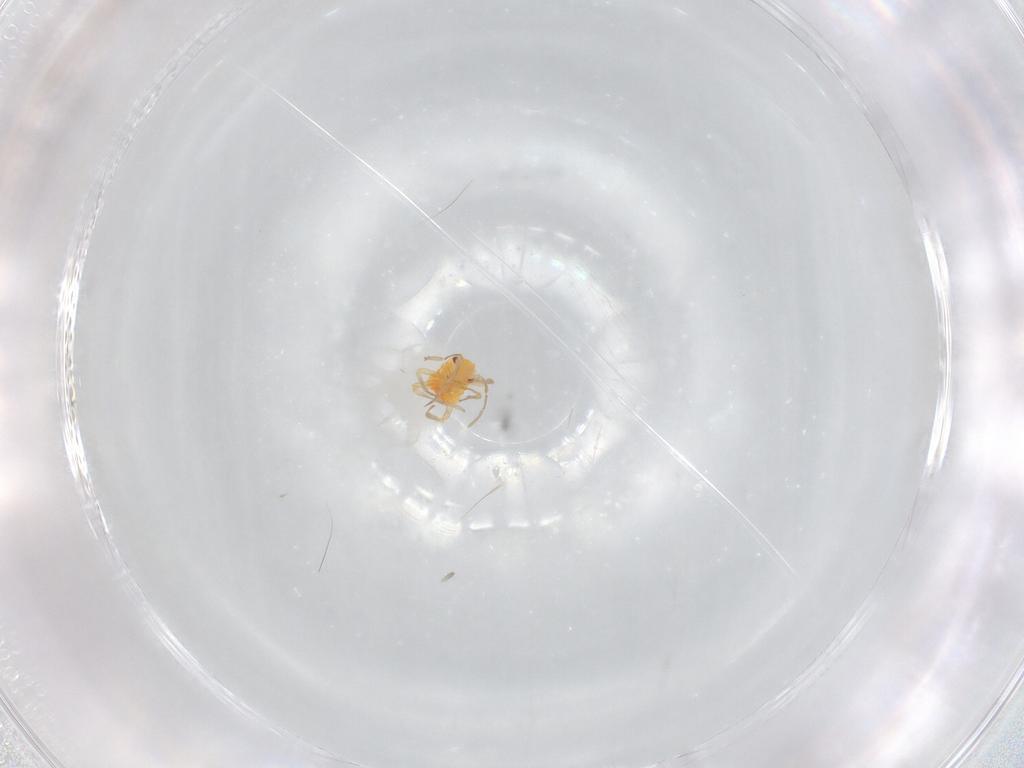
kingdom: Animalia
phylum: Arthropoda
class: Insecta
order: Hemiptera
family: Miridae
